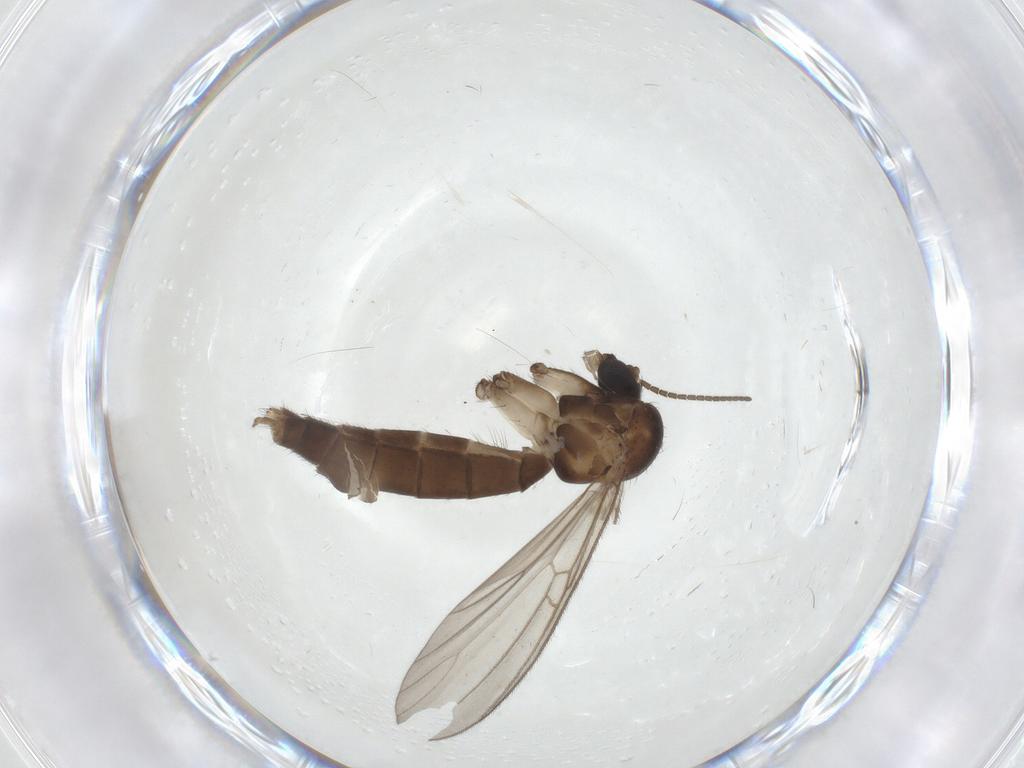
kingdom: Animalia
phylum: Arthropoda
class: Insecta
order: Diptera
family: Mycetophilidae
